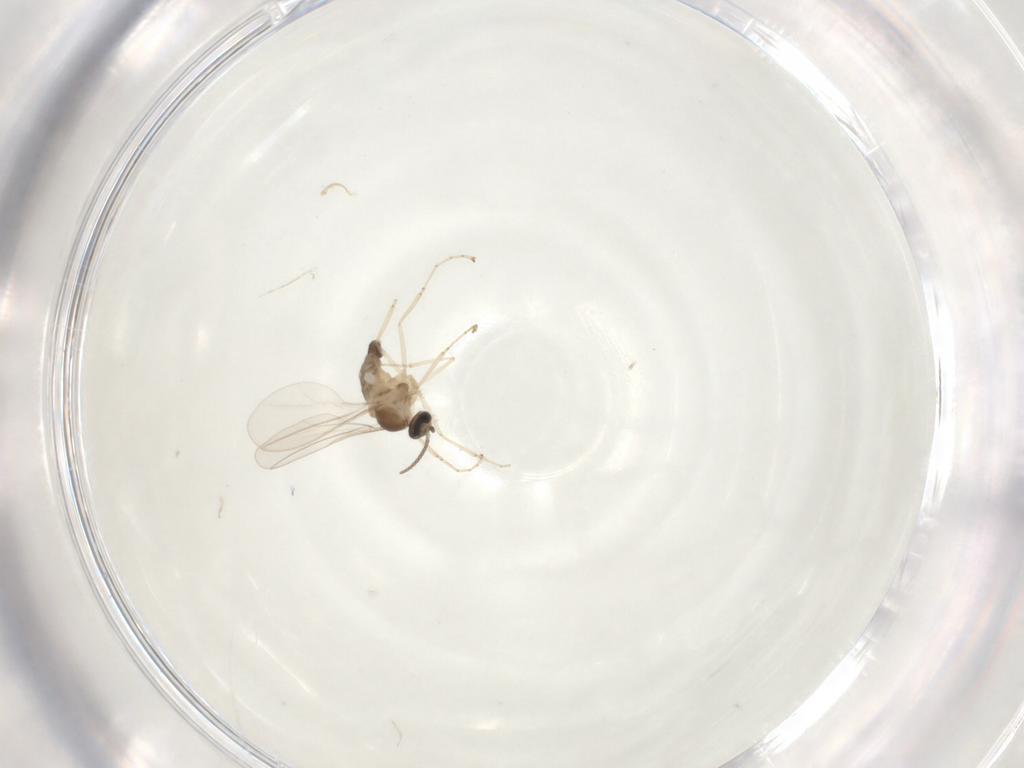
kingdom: Animalia
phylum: Arthropoda
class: Insecta
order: Diptera
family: Cecidomyiidae
